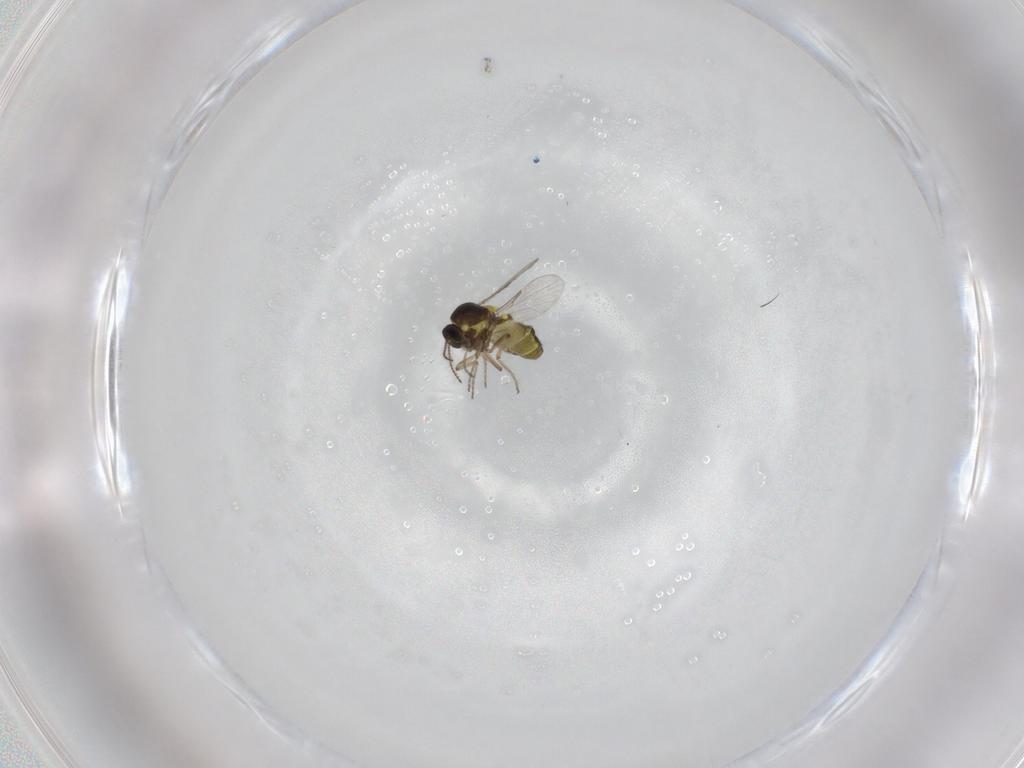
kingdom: Animalia
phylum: Arthropoda
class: Insecta
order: Diptera
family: Ceratopogonidae
